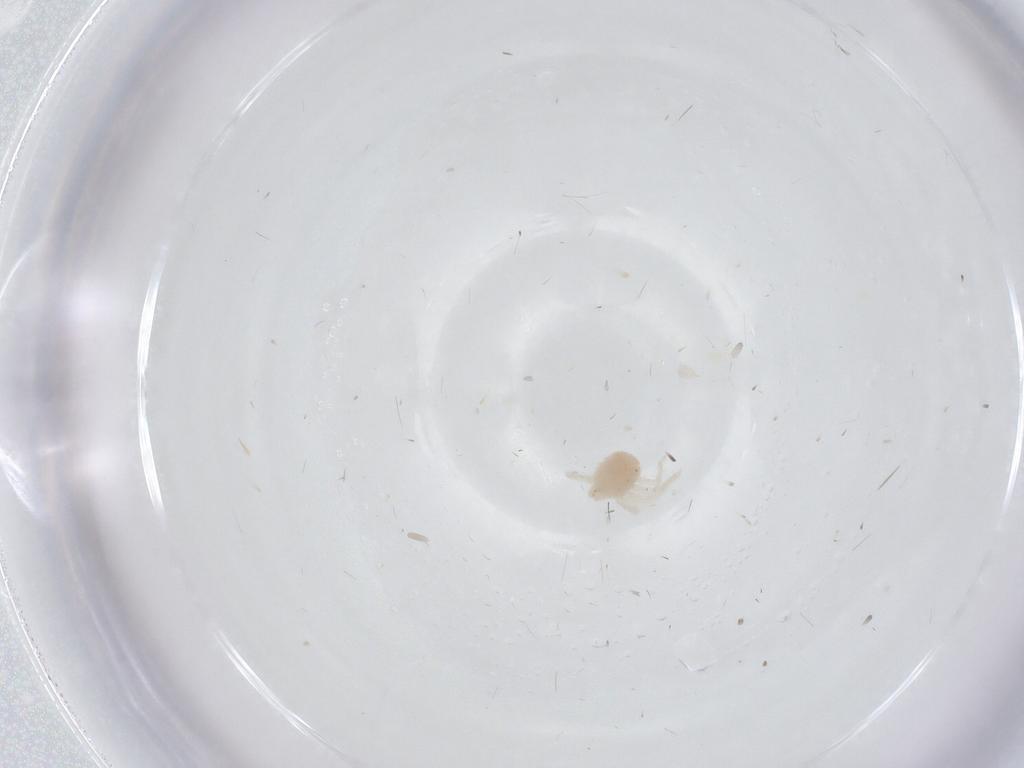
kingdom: Animalia
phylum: Arthropoda
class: Arachnida
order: Trombidiformes
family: Anystidae
